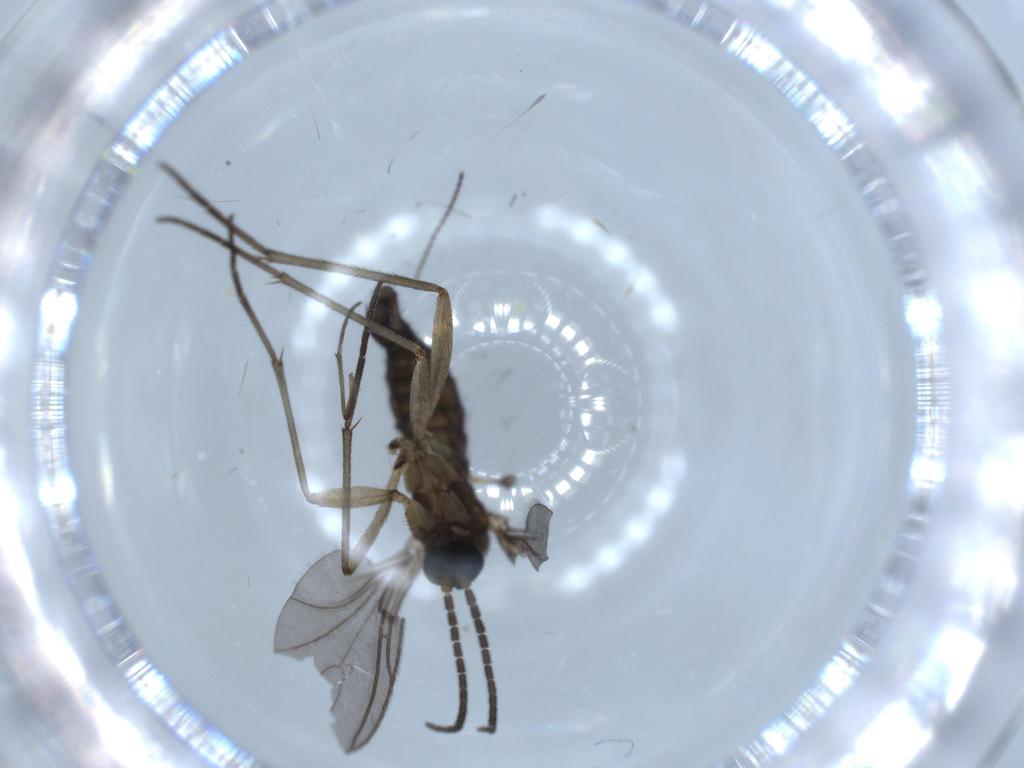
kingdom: Animalia
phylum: Arthropoda
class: Insecta
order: Diptera
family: Sciaridae
